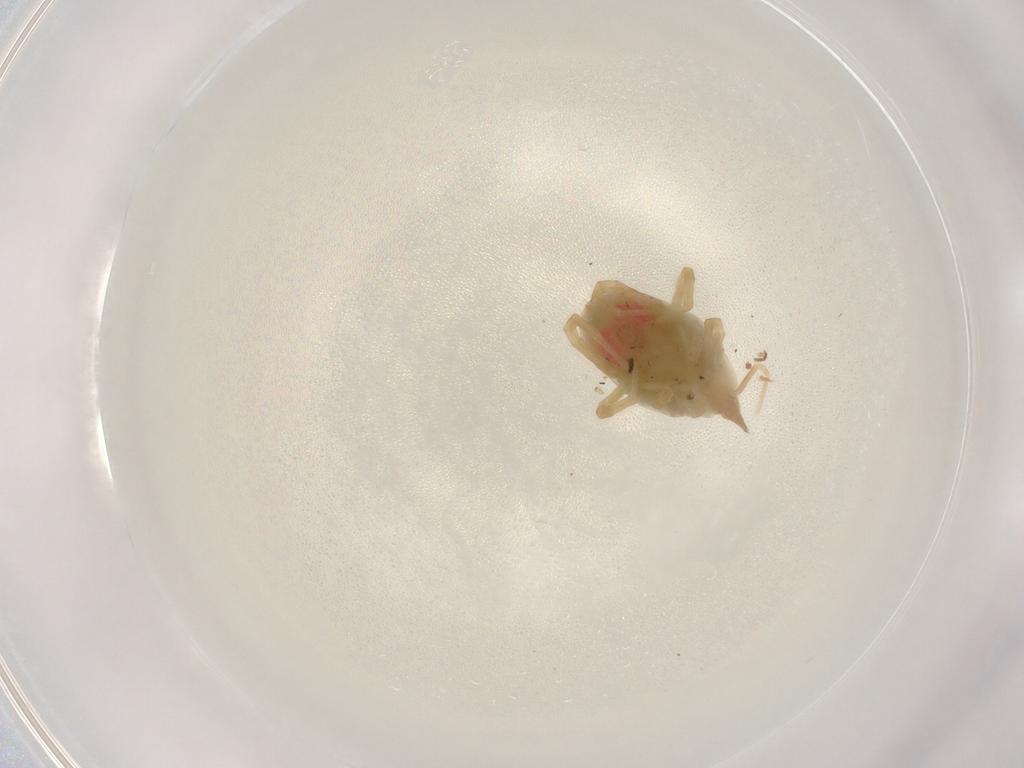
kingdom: Animalia
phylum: Arthropoda
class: Arachnida
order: Trombidiformes
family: Bdellidae
